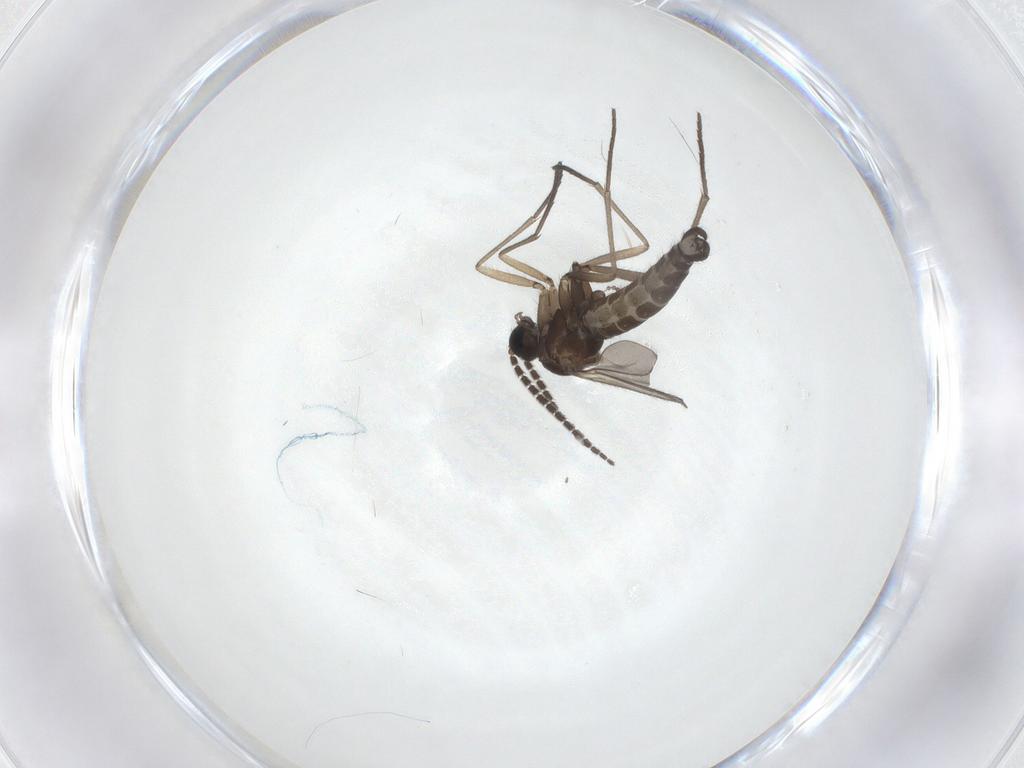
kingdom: Animalia
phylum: Arthropoda
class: Insecta
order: Diptera
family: Sciaridae
